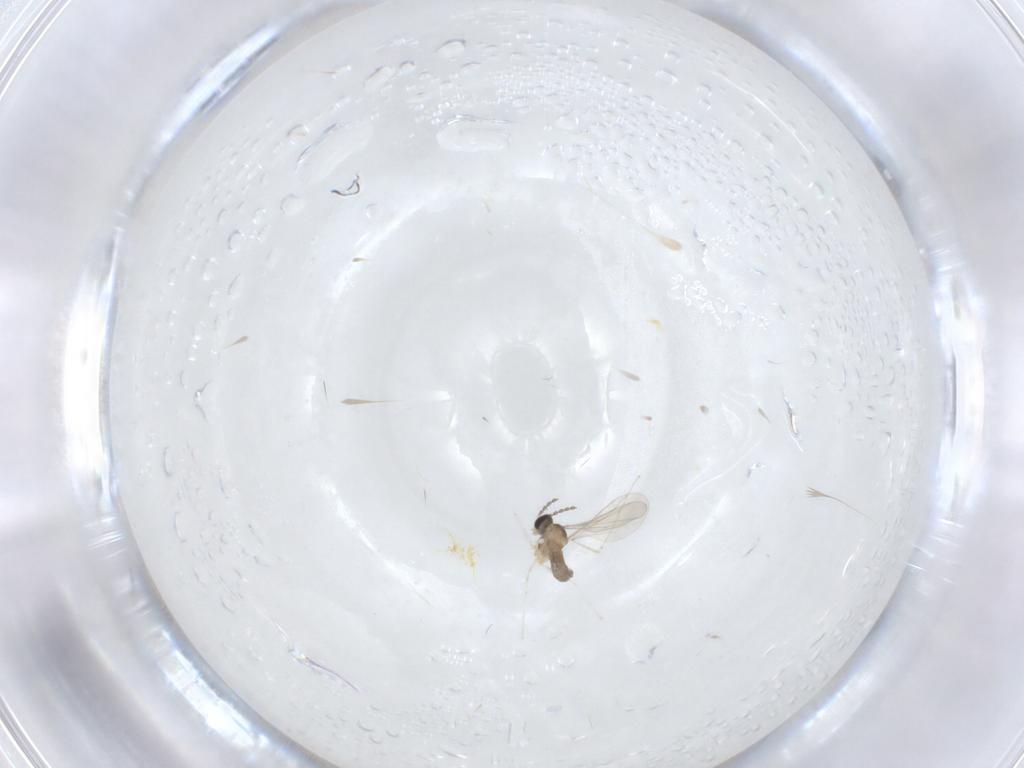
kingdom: Animalia
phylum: Arthropoda
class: Insecta
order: Diptera
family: Cecidomyiidae
